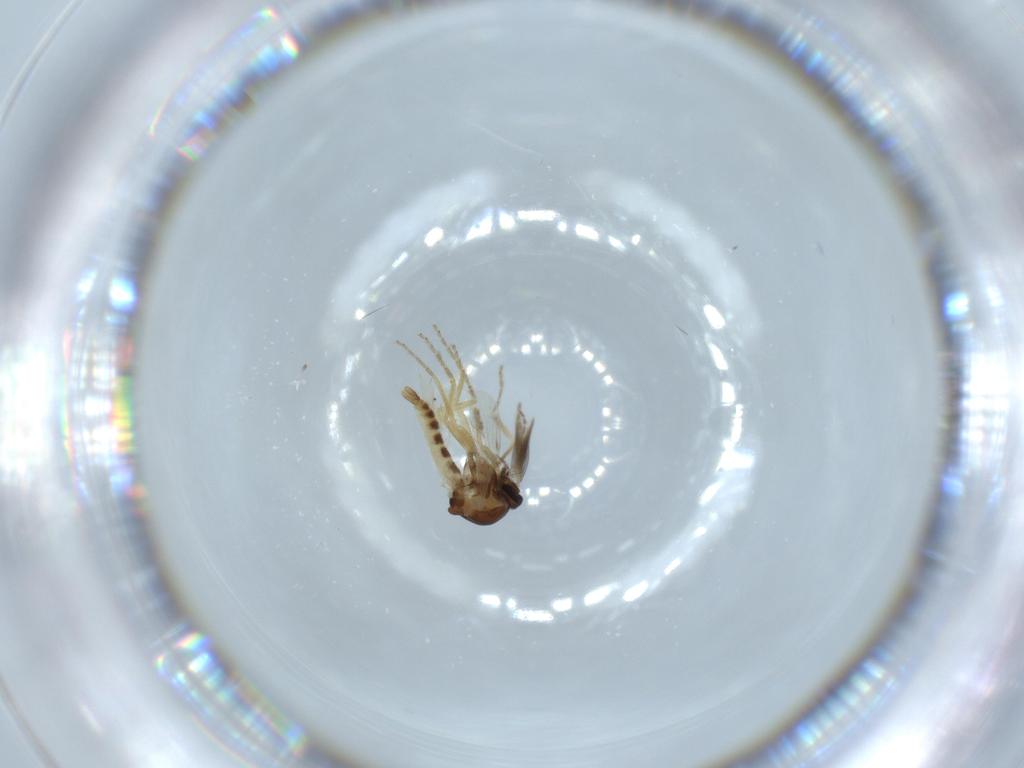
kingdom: Animalia
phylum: Arthropoda
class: Insecta
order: Diptera
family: Ceratopogonidae
